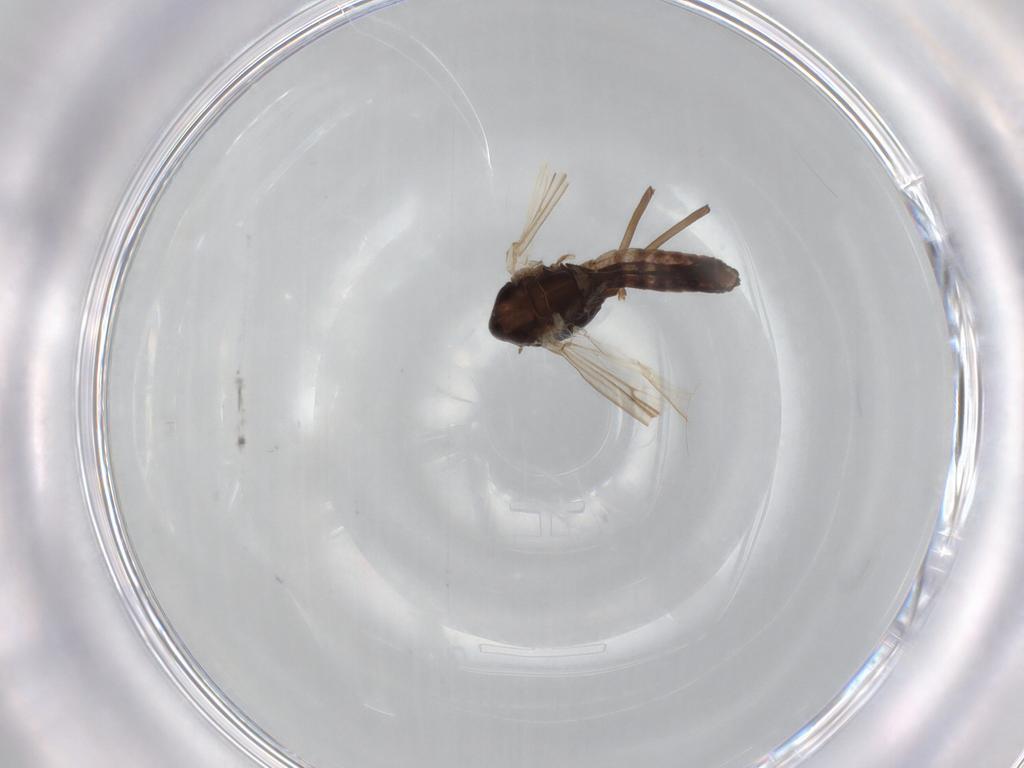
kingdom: Animalia
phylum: Arthropoda
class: Insecta
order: Diptera
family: Chironomidae
